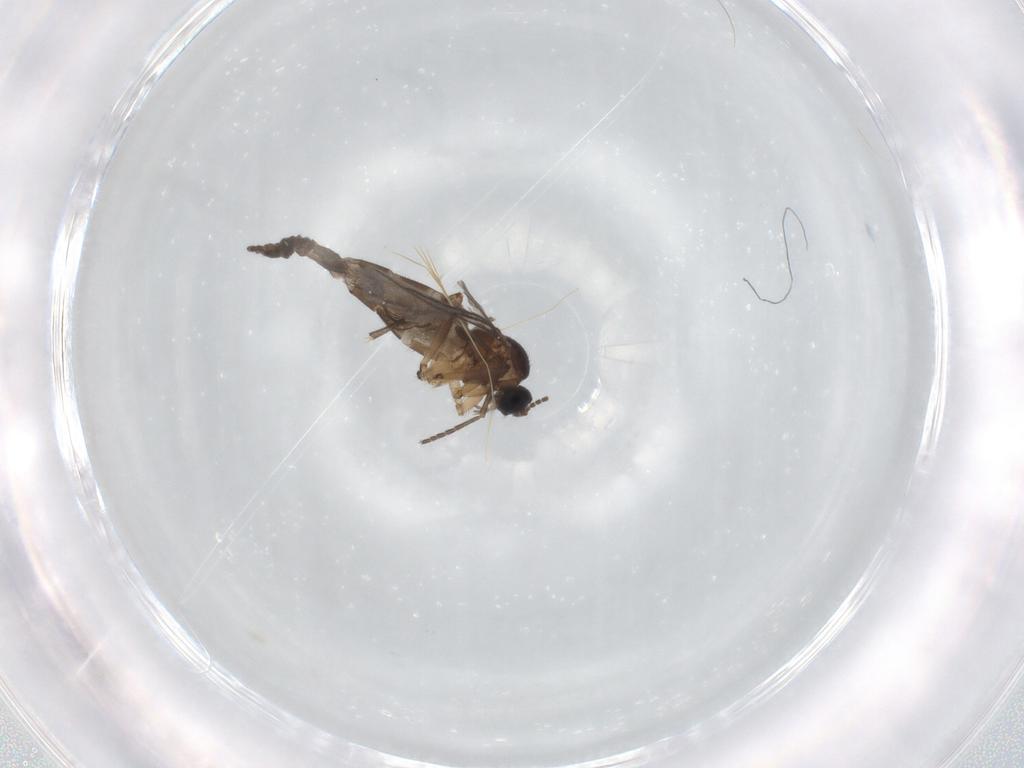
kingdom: Animalia
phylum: Arthropoda
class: Insecta
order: Diptera
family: Sciaridae
